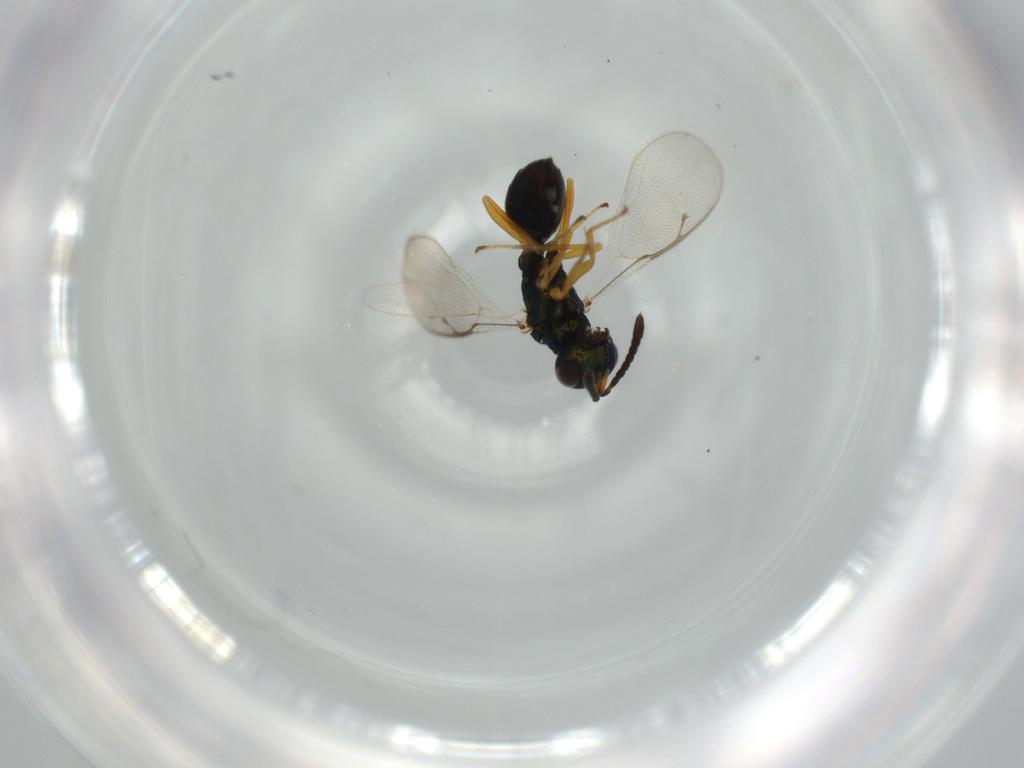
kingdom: Animalia
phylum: Arthropoda
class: Insecta
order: Hymenoptera
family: Pteromalidae
